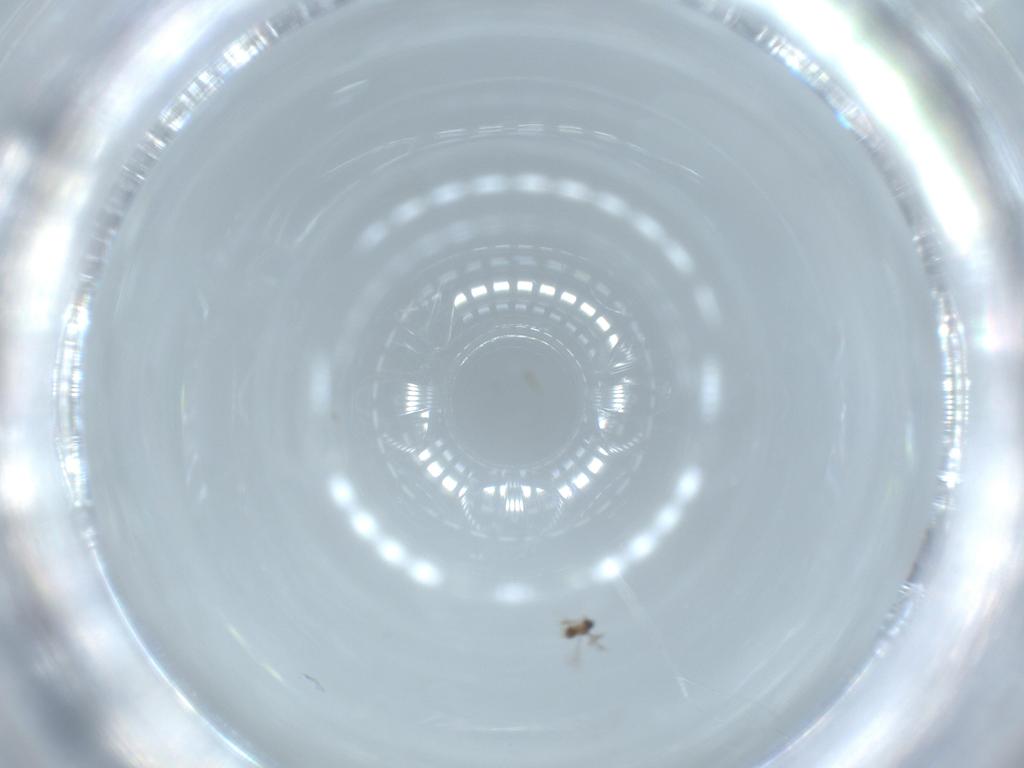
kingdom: Animalia
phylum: Arthropoda
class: Insecta
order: Hymenoptera
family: Mymaridae
